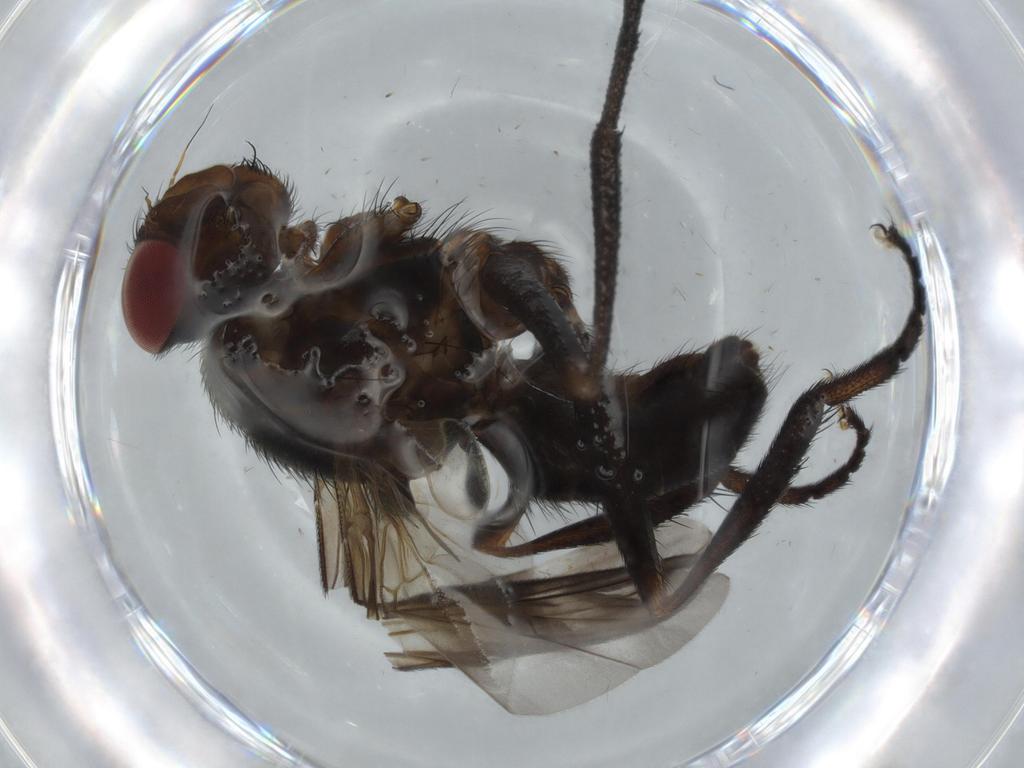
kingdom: Animalia
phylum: Arthropoda
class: Insecta
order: Diptera
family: Calliphoridae
